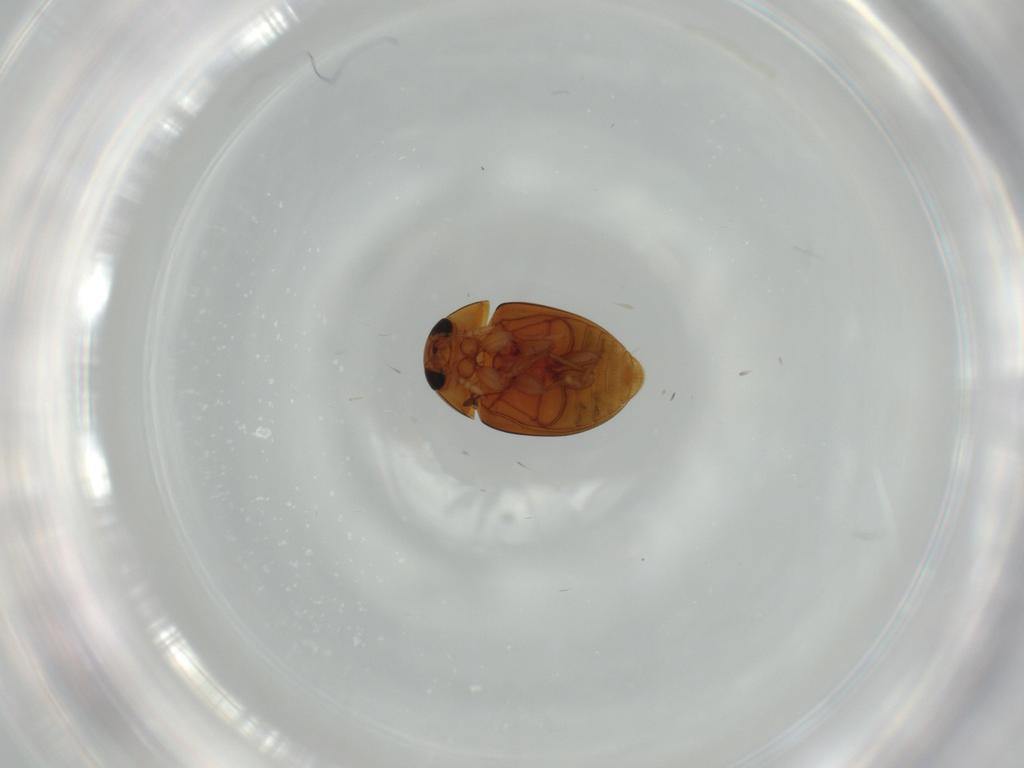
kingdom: Animalia
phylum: Arthropoda
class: Insecta
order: Coleoptera
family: Phalacridae
